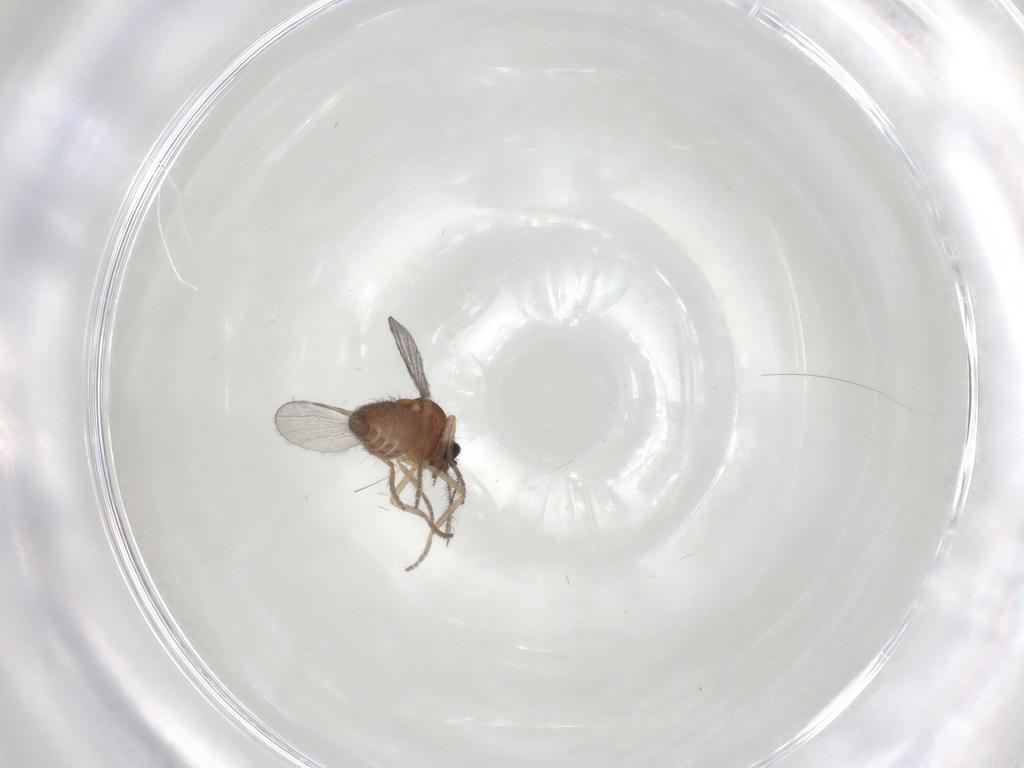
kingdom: Animalia
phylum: Arthropoda
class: Insecta
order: Diptera
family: Ceratopogonidae
